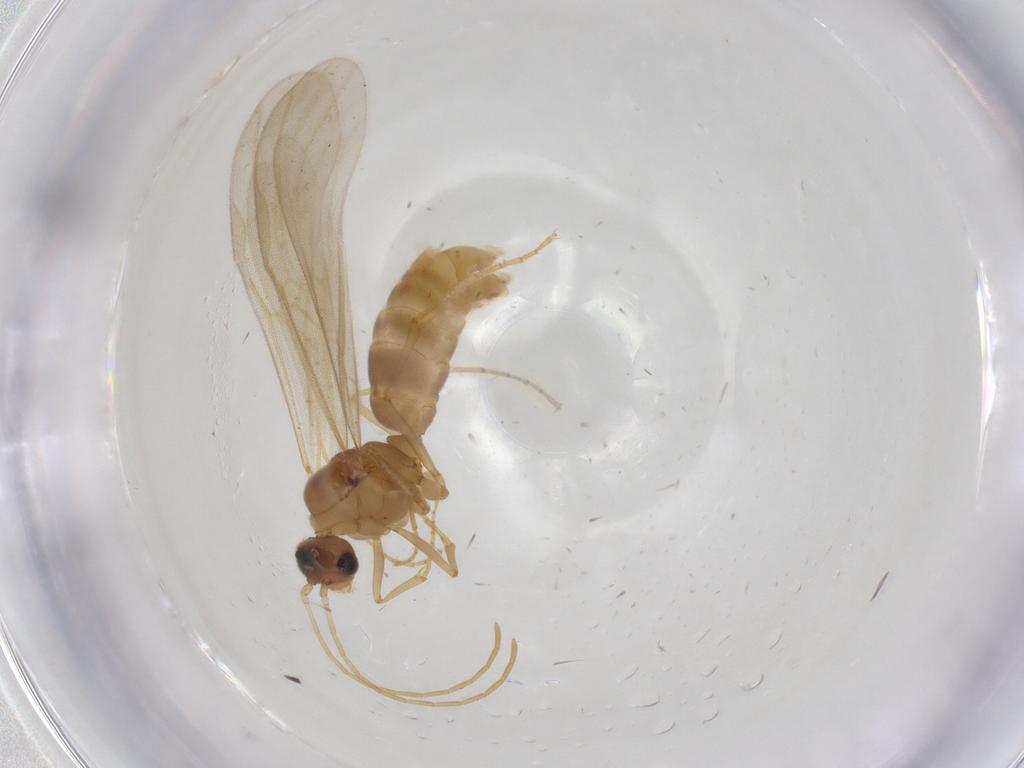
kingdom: Animalia
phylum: Arthropoda
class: Insecta
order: Hymenoptera
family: Formicidae
